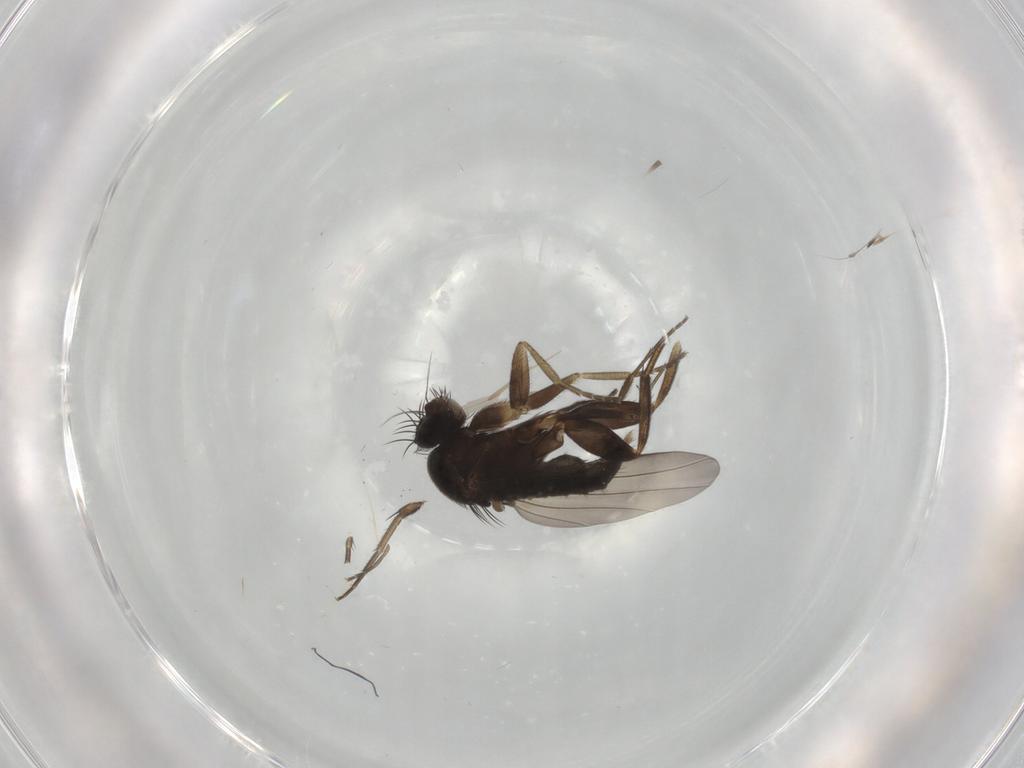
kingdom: Animalia
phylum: Arthropoda
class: Insecta
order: Diptera
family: Phoridae
